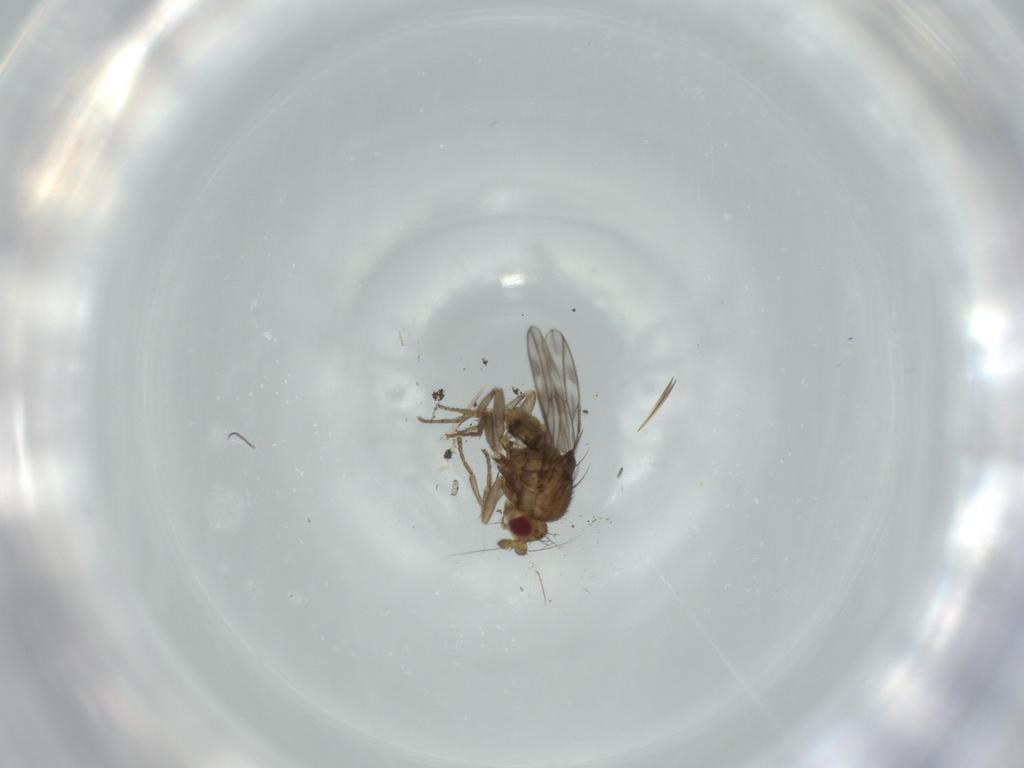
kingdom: Animalia
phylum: Arthropoda
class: Insecta
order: Diptera
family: Sphaeroceridae
